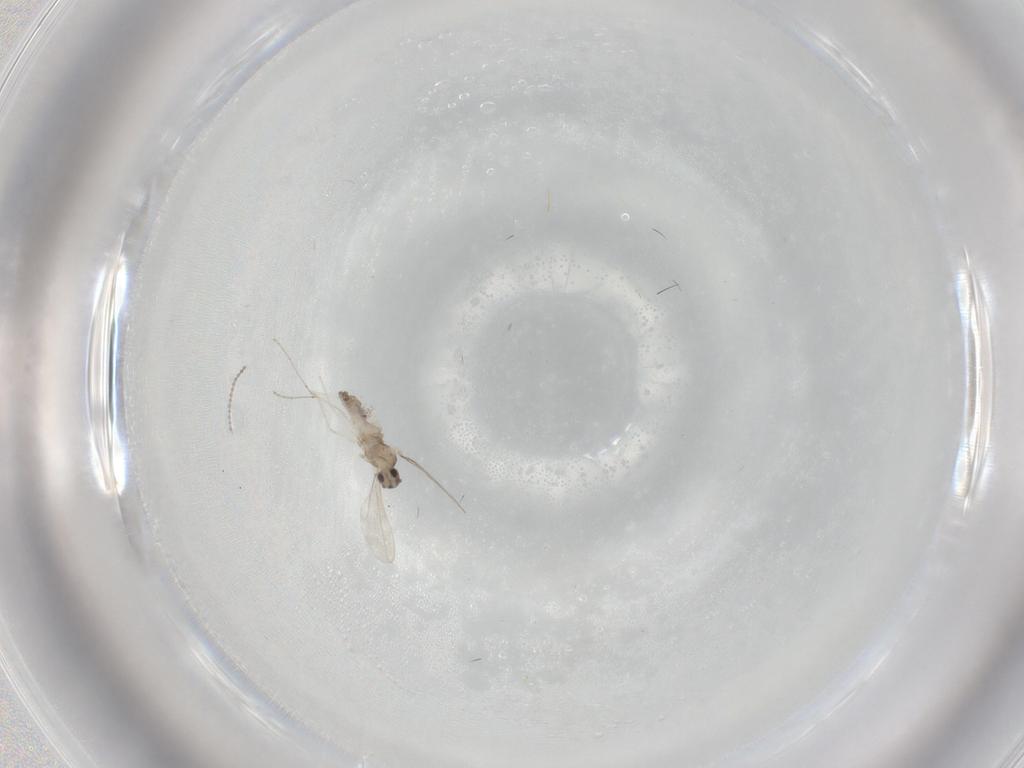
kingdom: Animalia
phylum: Arthropoda
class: Insecta
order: Diptera
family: Cecidomyiidae
